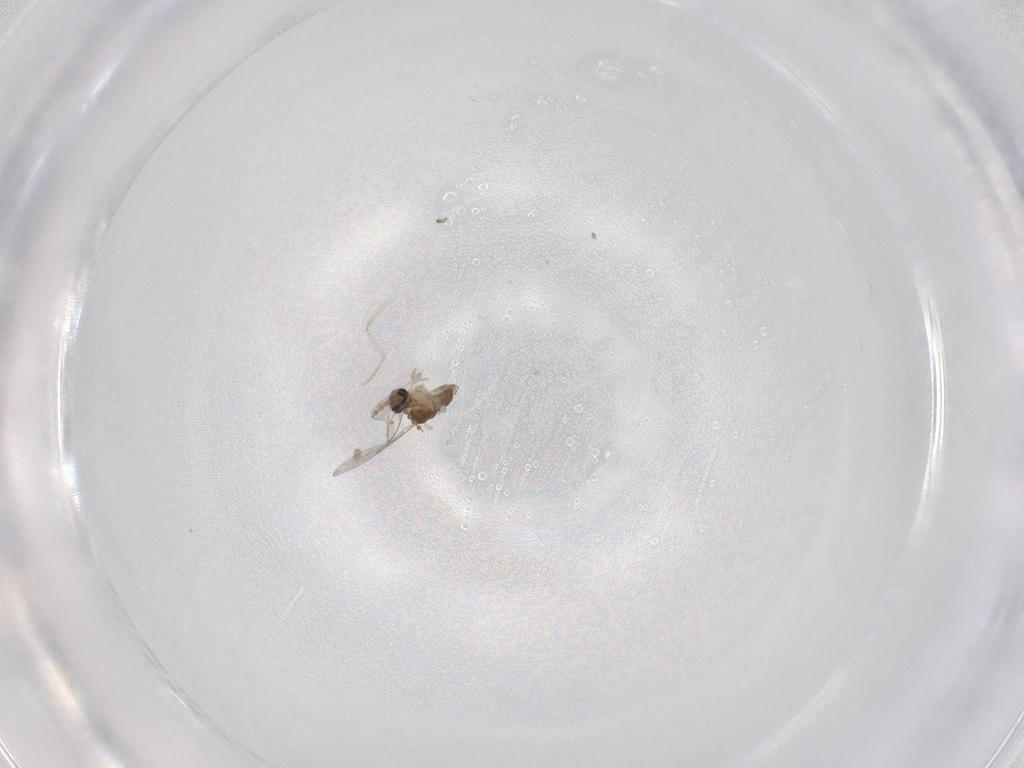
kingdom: Animalia
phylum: Arthropoda
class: Insecta
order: Diptera
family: Cecidomyiidae
